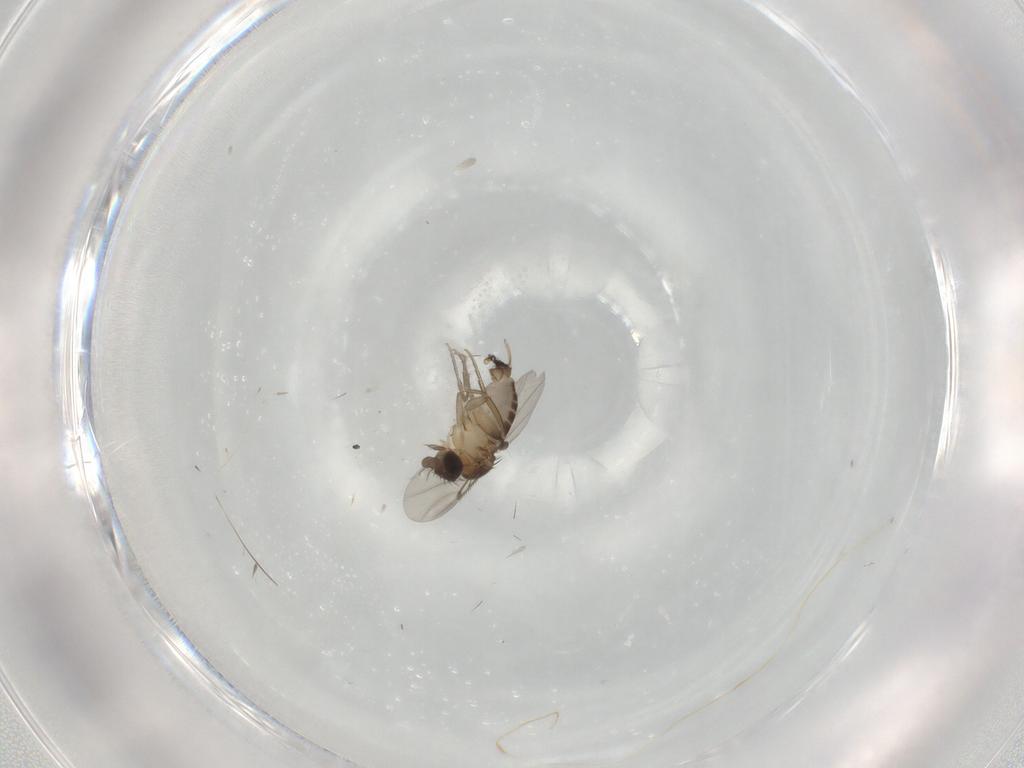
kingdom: Animalia
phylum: Arthropoda
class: Insecta
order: Diptera
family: Phoridae
